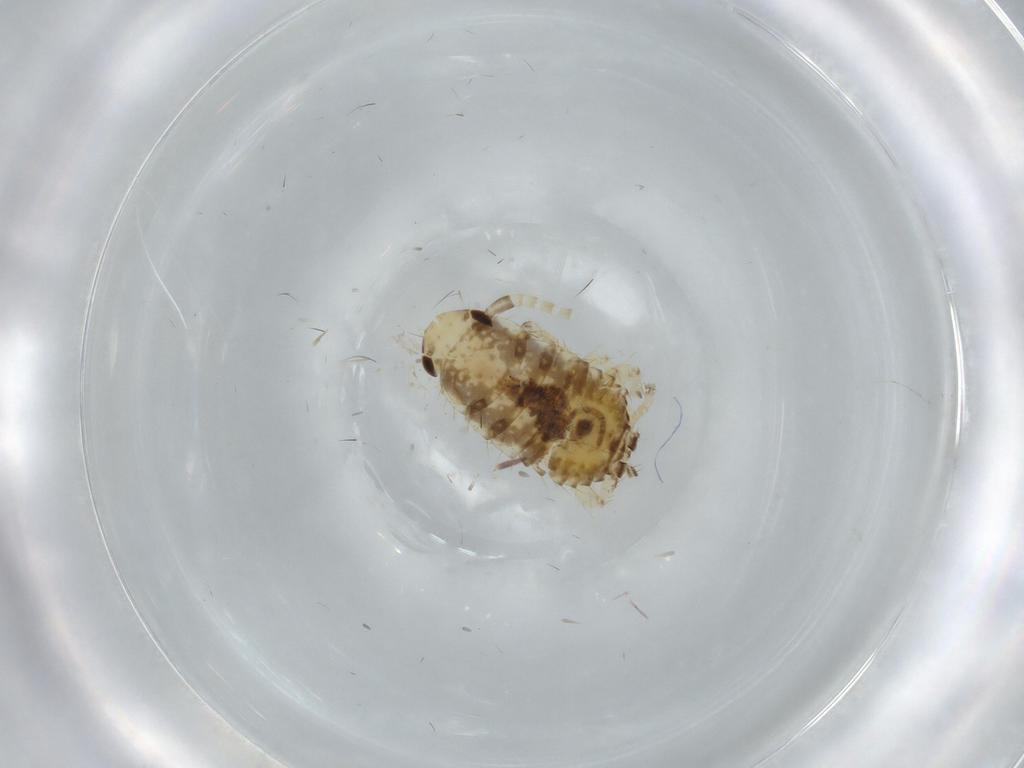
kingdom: Animalia
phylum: Arthropoda
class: Insecta
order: Blattodea
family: Ectobiidae
